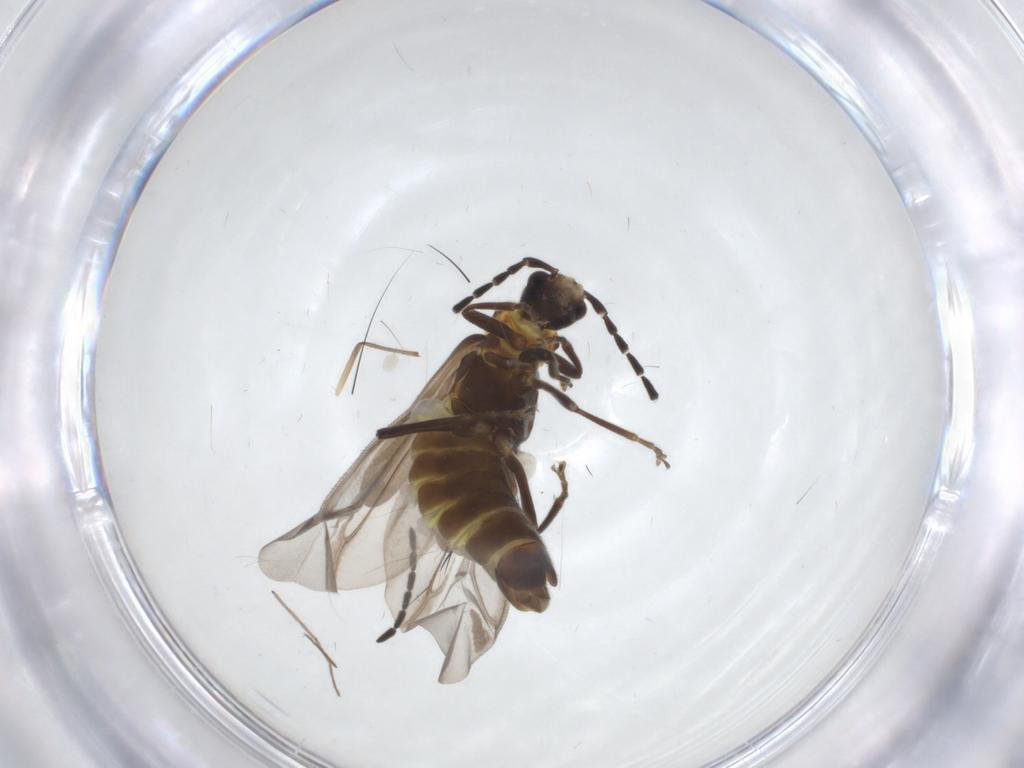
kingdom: Animalia
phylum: Arthropoda
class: Insecta
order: Coleoptera
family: Cantharidae
